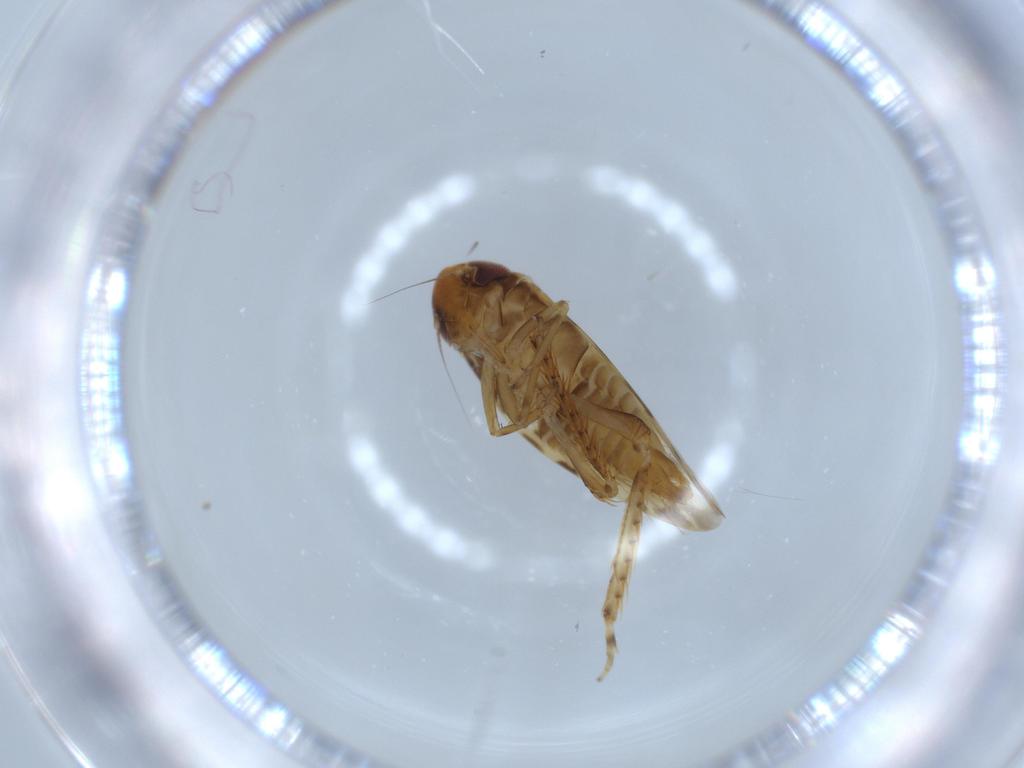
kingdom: Animalia
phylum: Arthropoda
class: Insecta
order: Hemiptera
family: Cicadellidae
